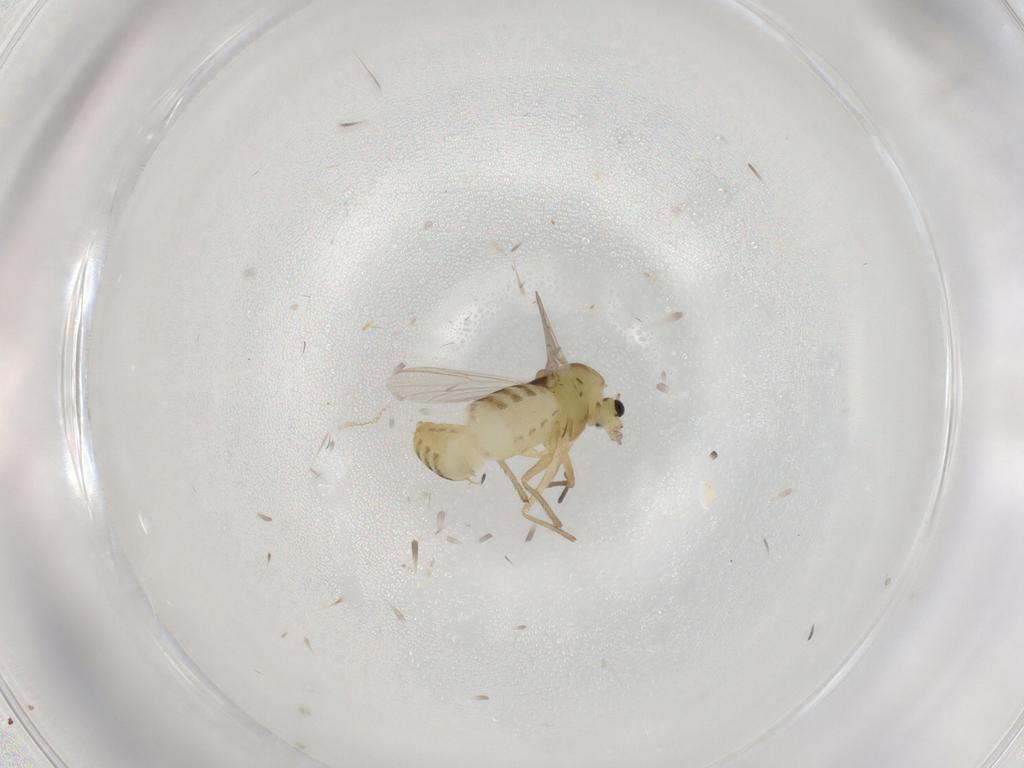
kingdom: Animalia
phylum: Arthropoda
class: Insecta
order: Diptera
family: Chironomidae
